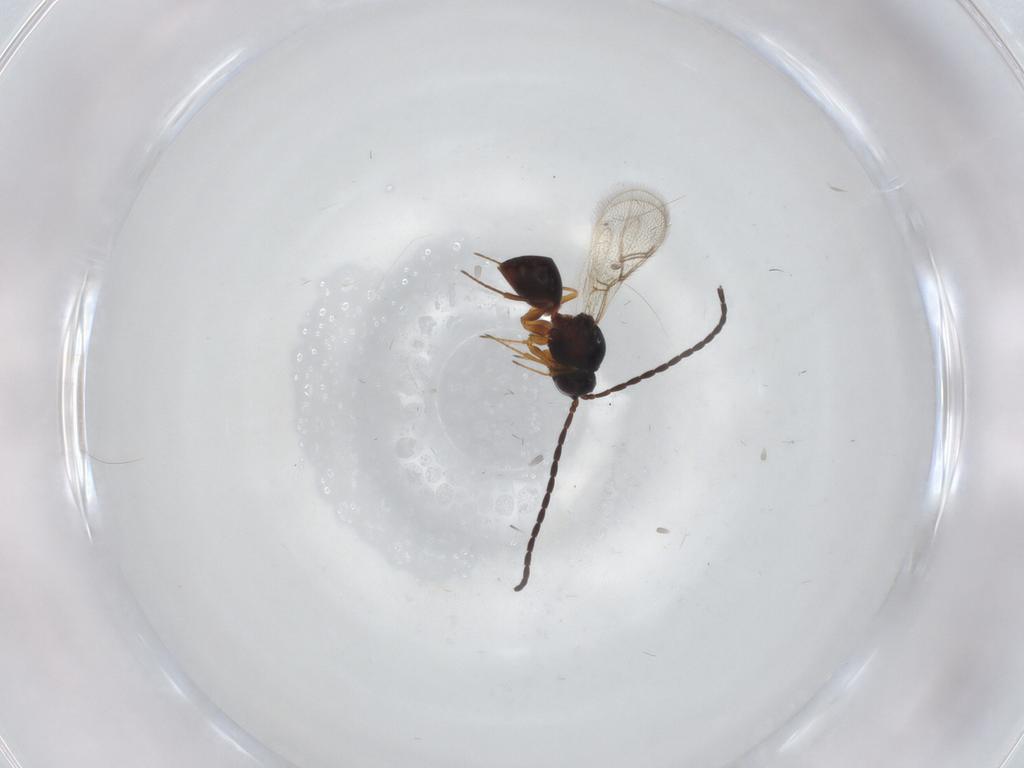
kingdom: Animalia
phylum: Arthropoda
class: Insecta
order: Hymenoptera
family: Figitidae
